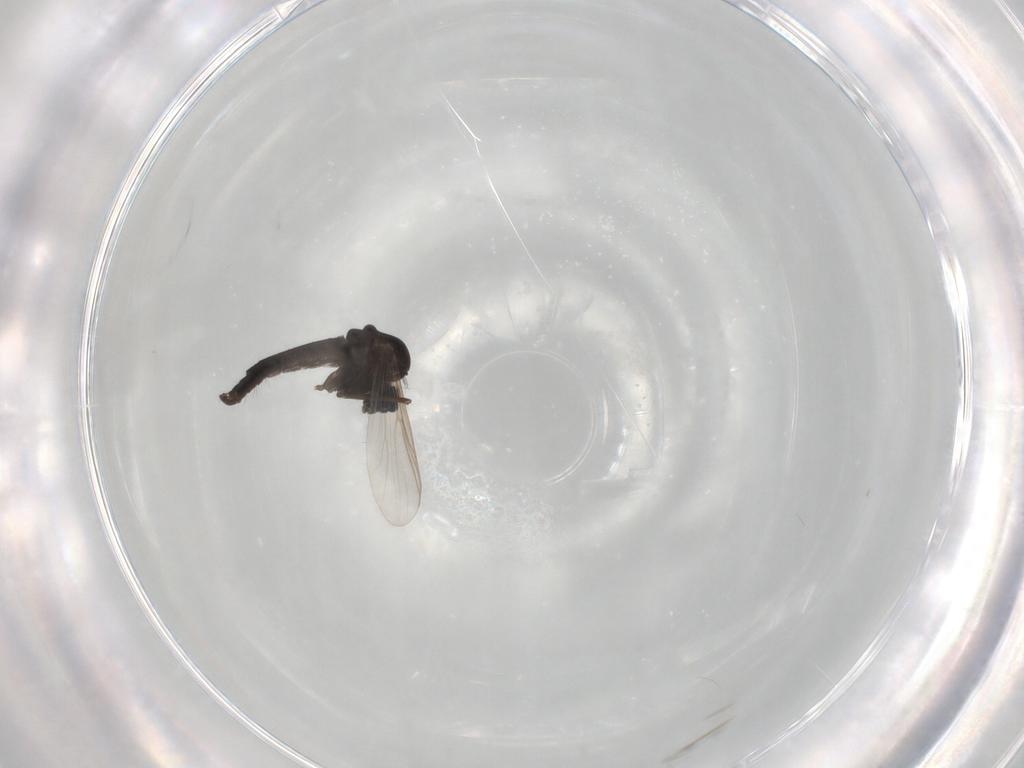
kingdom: Animalia
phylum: Arthropoda
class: Insecta
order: Diptera
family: Chironomidae
